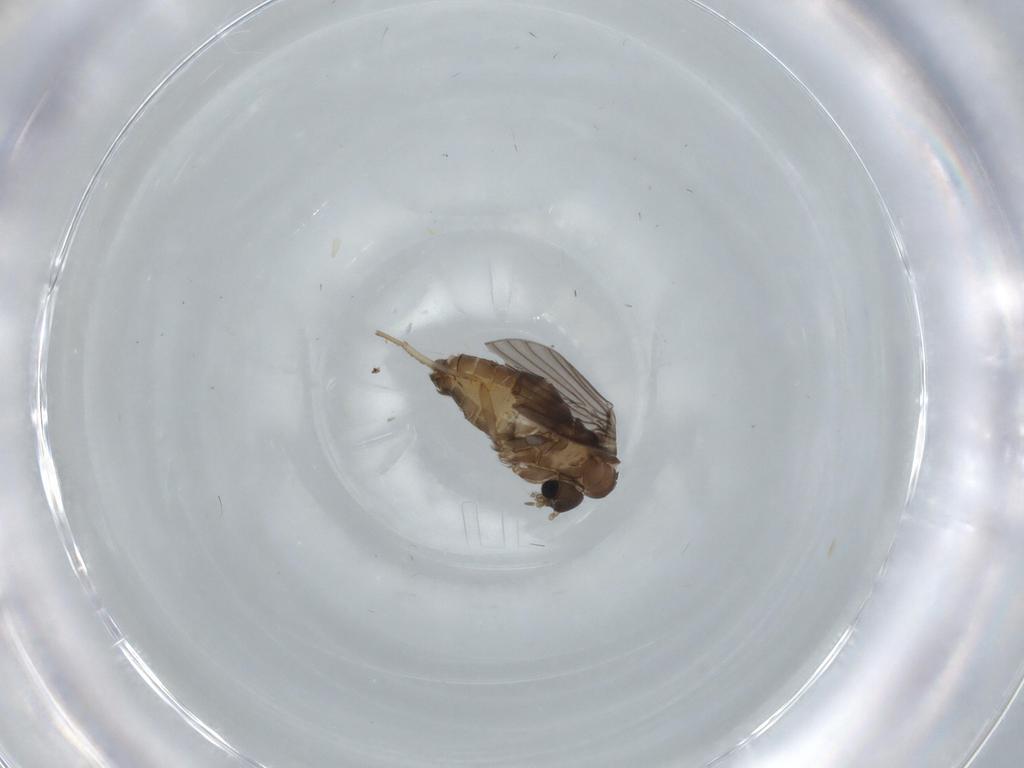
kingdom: Animalia
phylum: Arthropoda
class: Insecta
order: Diptera
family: Psychodidae
